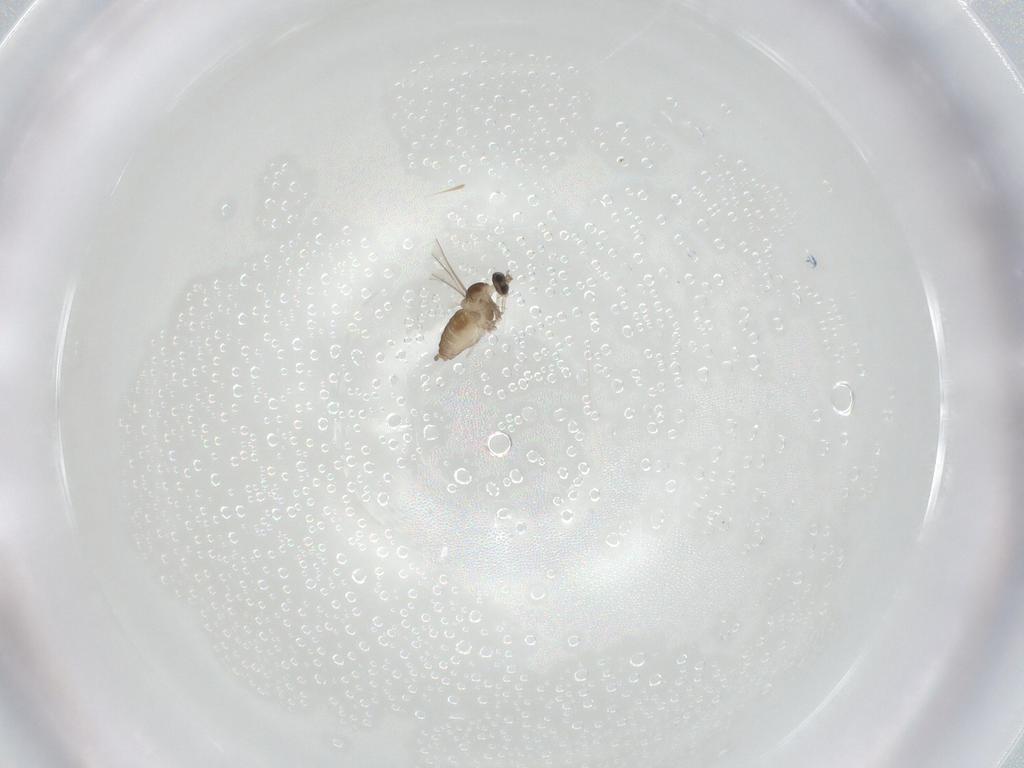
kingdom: Animalia
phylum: Arthropoda
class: Insecta
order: Diptera
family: Cecidomyiidae
